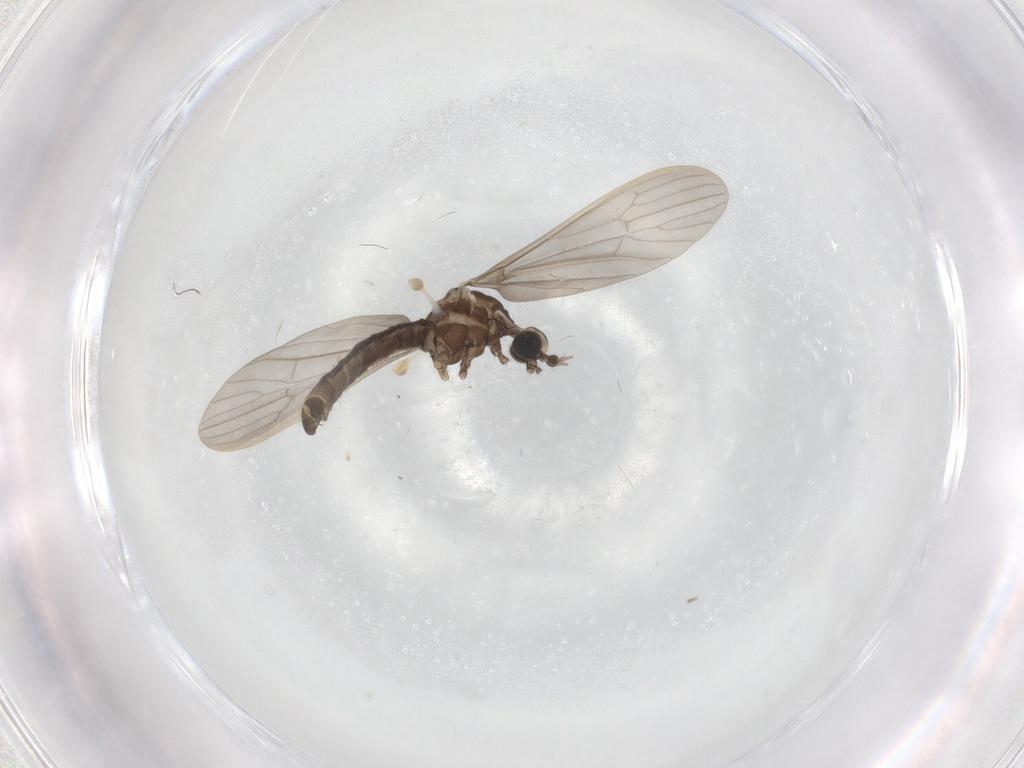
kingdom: Animalia
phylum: Arthropoda
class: Insecta
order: Diptera
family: Limoniidae
